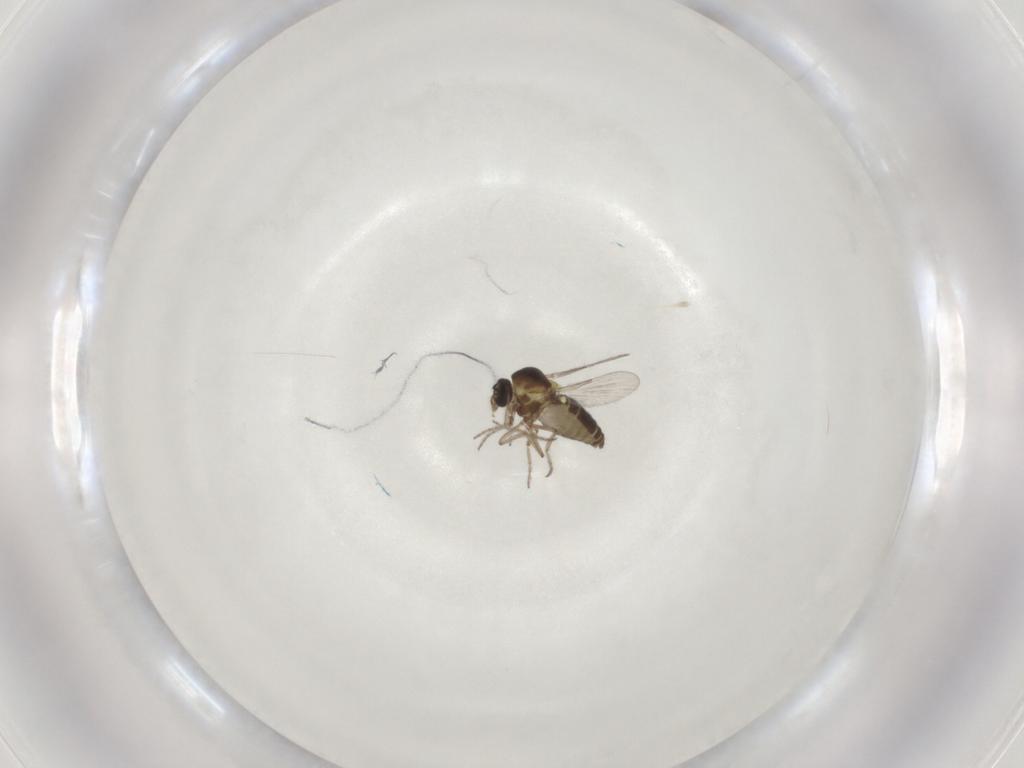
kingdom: Animalia
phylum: Arthropoda
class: Insecta
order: Diptera
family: Ceratopogonidae
